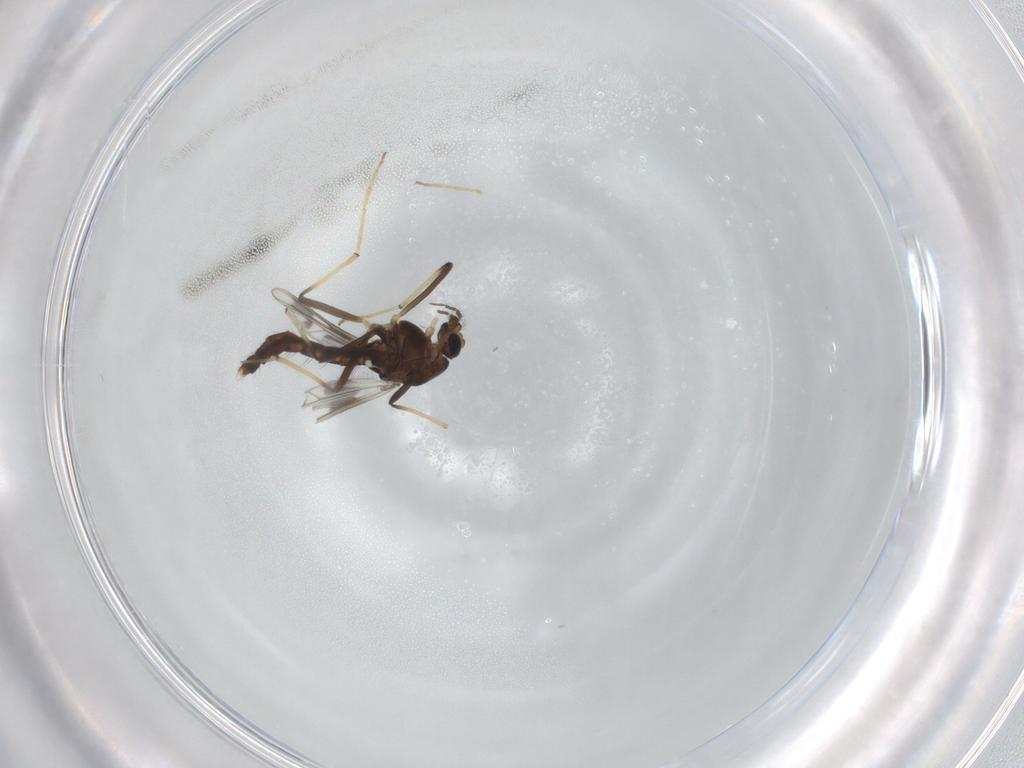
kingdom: Animalia
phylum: Arthropoda
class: Insecta
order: Diptera
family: Chironomidae
